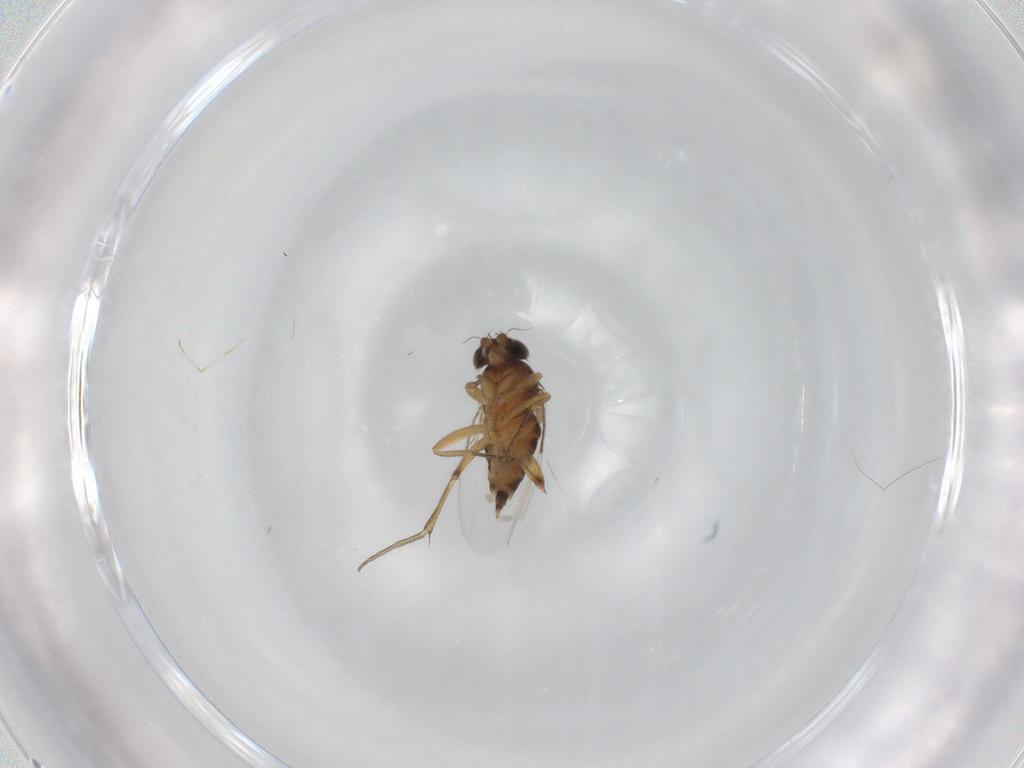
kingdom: Animalia
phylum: Arthropoda
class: Insecta
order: Diptera
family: Phoridae
